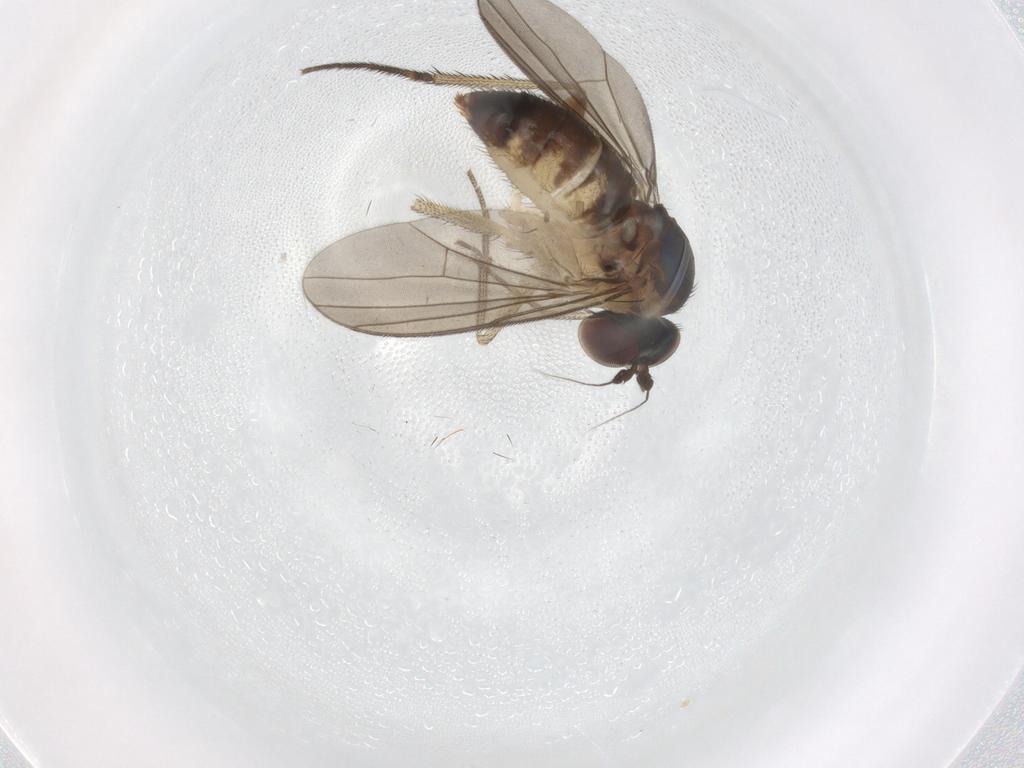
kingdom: Animalia
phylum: Arthropoda
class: Insecta
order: Diptera
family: Dolichopodidae
